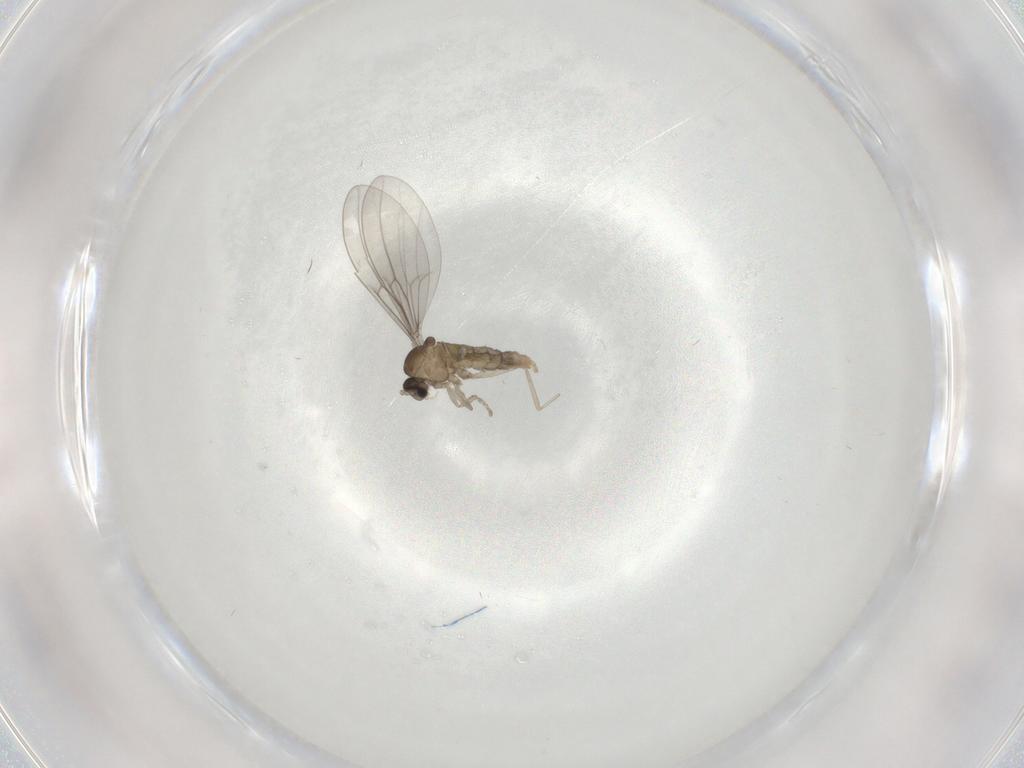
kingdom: Animalia
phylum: Arthropoda
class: Insecta
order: Diptera
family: Cecidomyiidae
